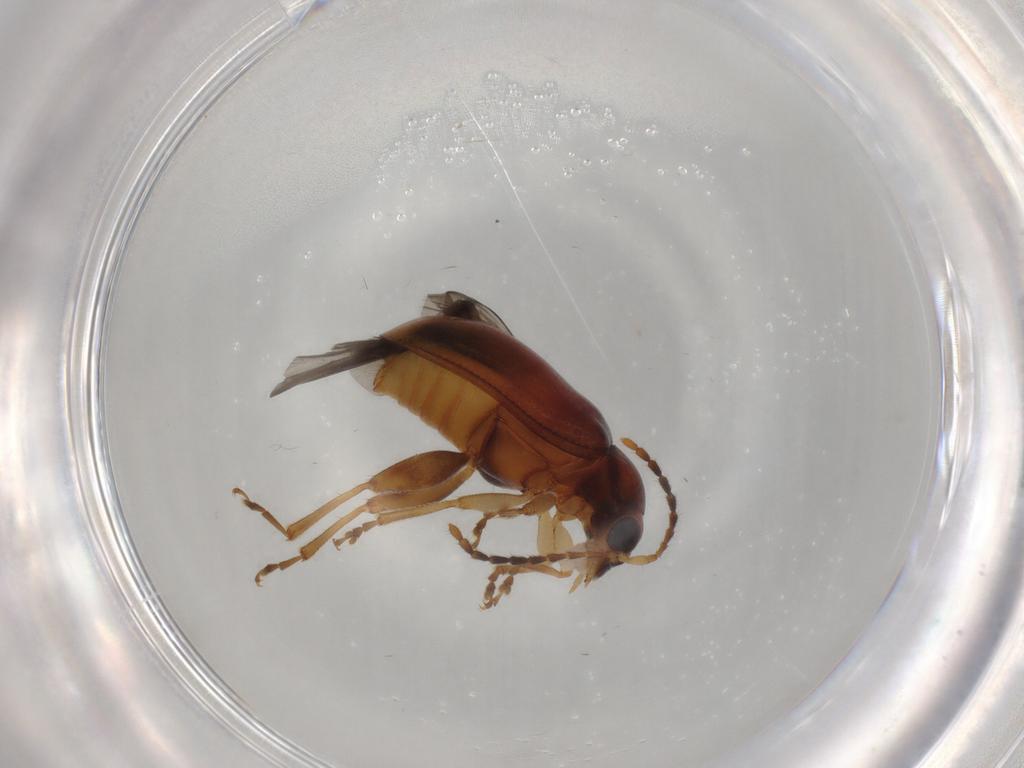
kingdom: Animalia
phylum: Arthropoda
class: Insecta
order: Coleoptera
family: Chrysomelidae
